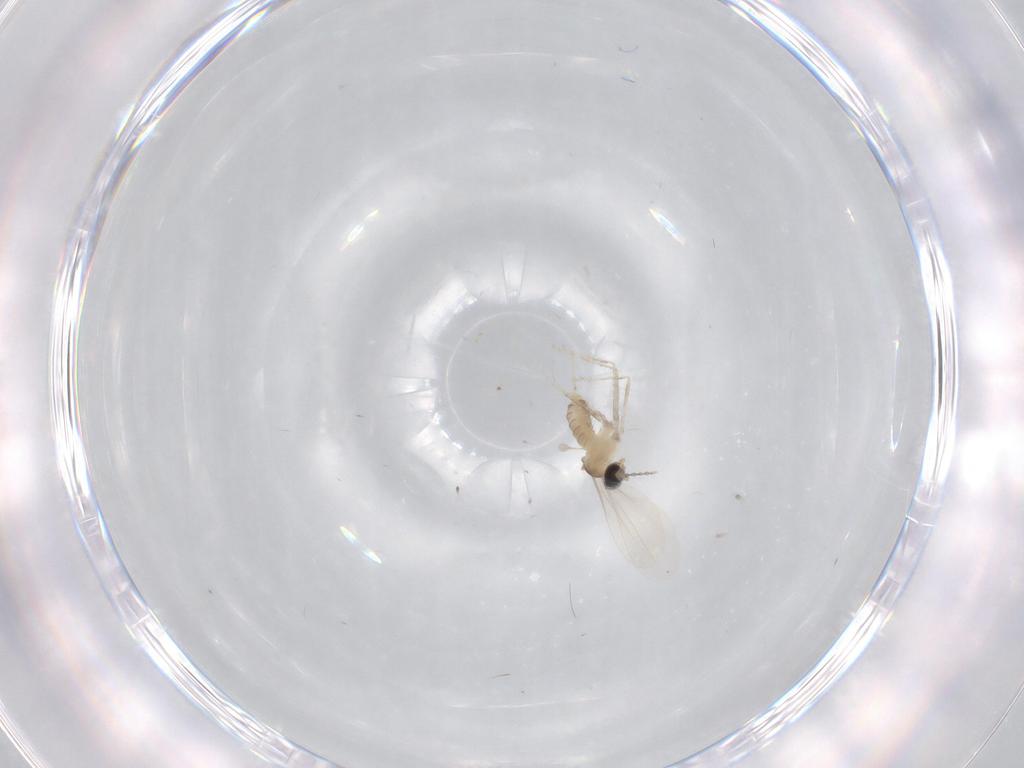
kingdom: Animalia
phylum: Arthropoda
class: Insecta
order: Diptera
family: Cecidomyiidae
